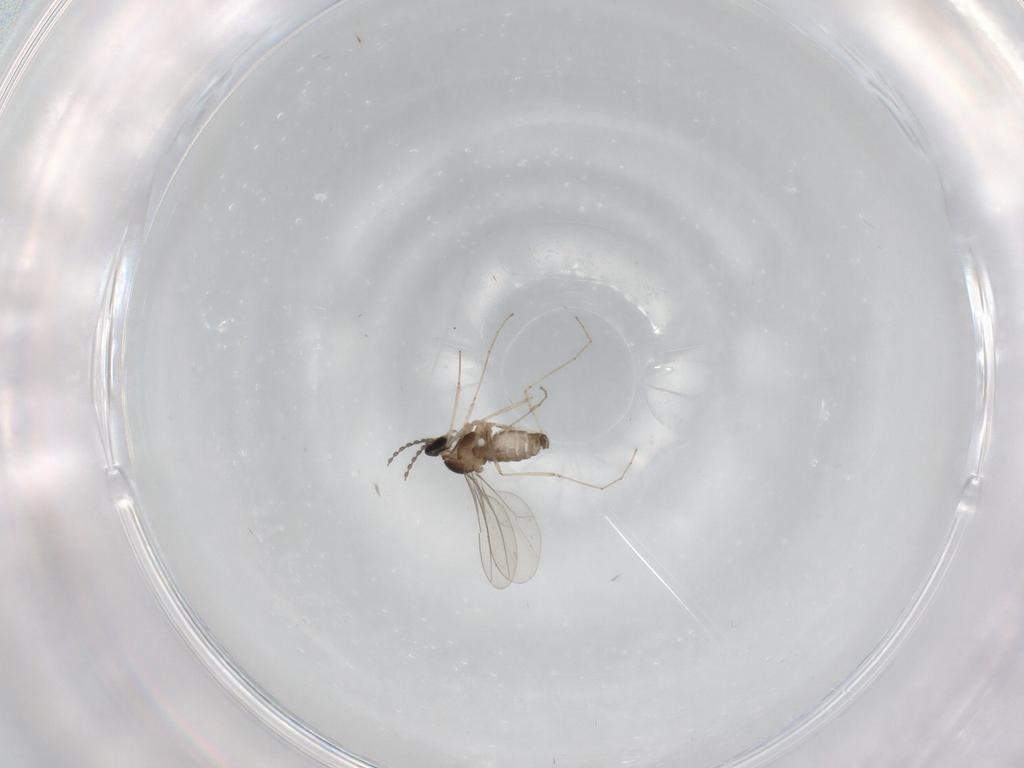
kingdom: Animalia
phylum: Arthropoda
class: Insecta
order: Diptera
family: Cecidomyiidae
